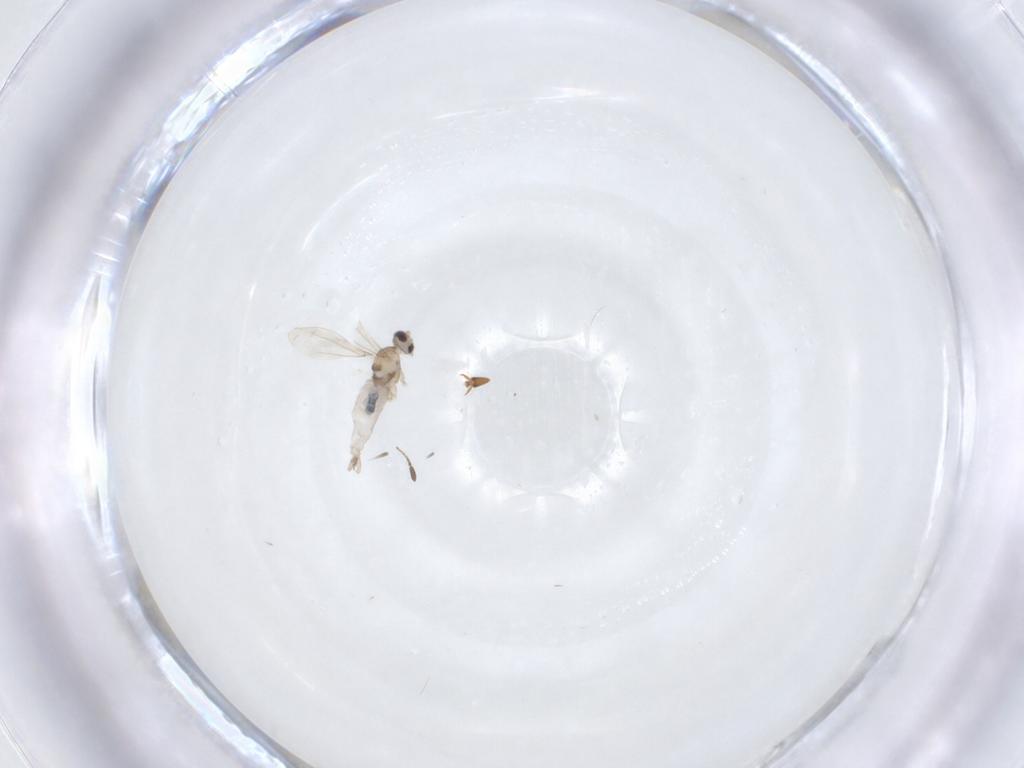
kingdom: Animalia
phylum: Arthropoda
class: Insecta
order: Diptera
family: Cecidomyiidae
